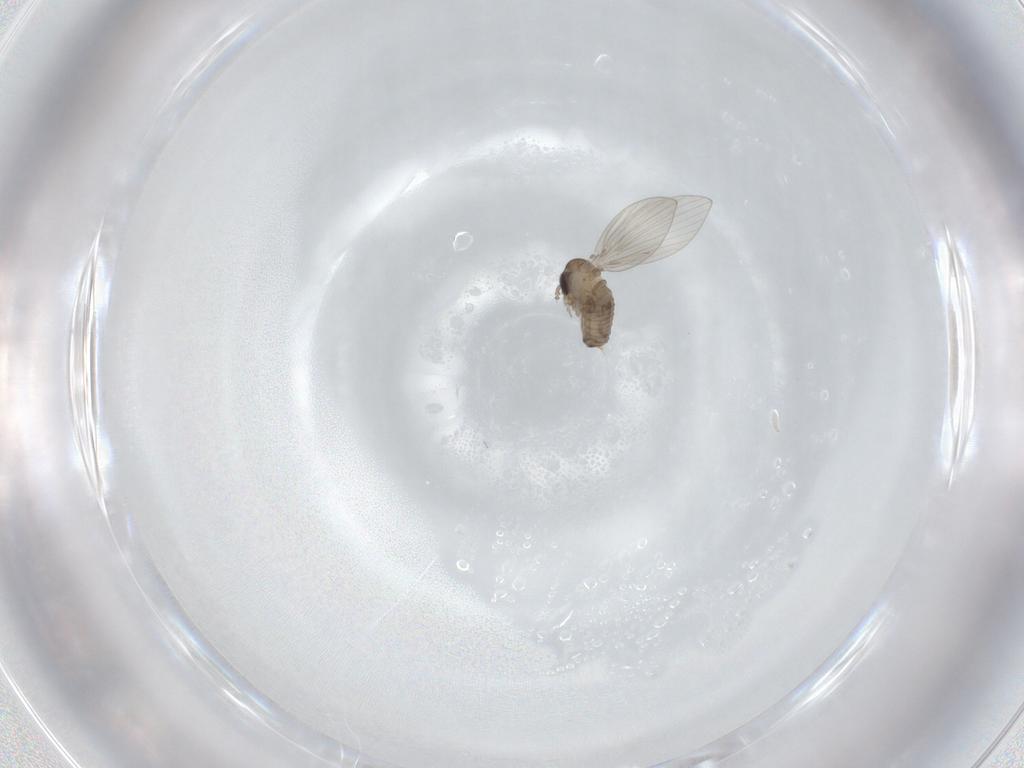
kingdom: Animalia
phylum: Arthropoda
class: Insecta
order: Diptera
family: Psychodidae
